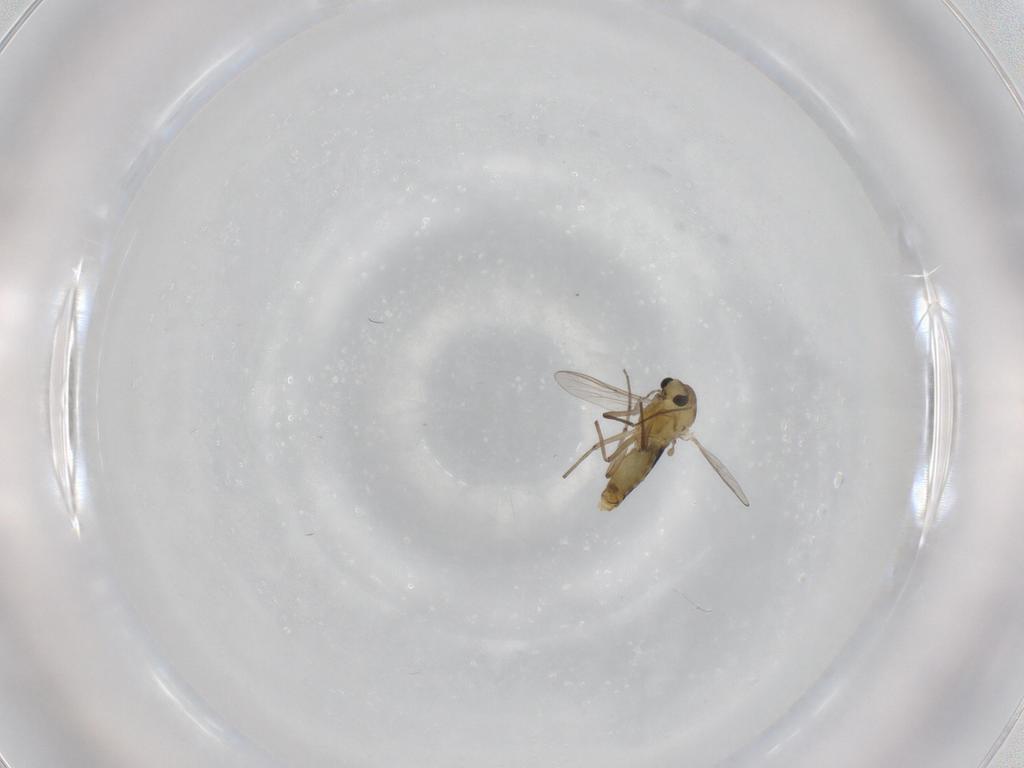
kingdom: Animalia
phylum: Arthropoda
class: Insecta
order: Diptera
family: Chironomidae
